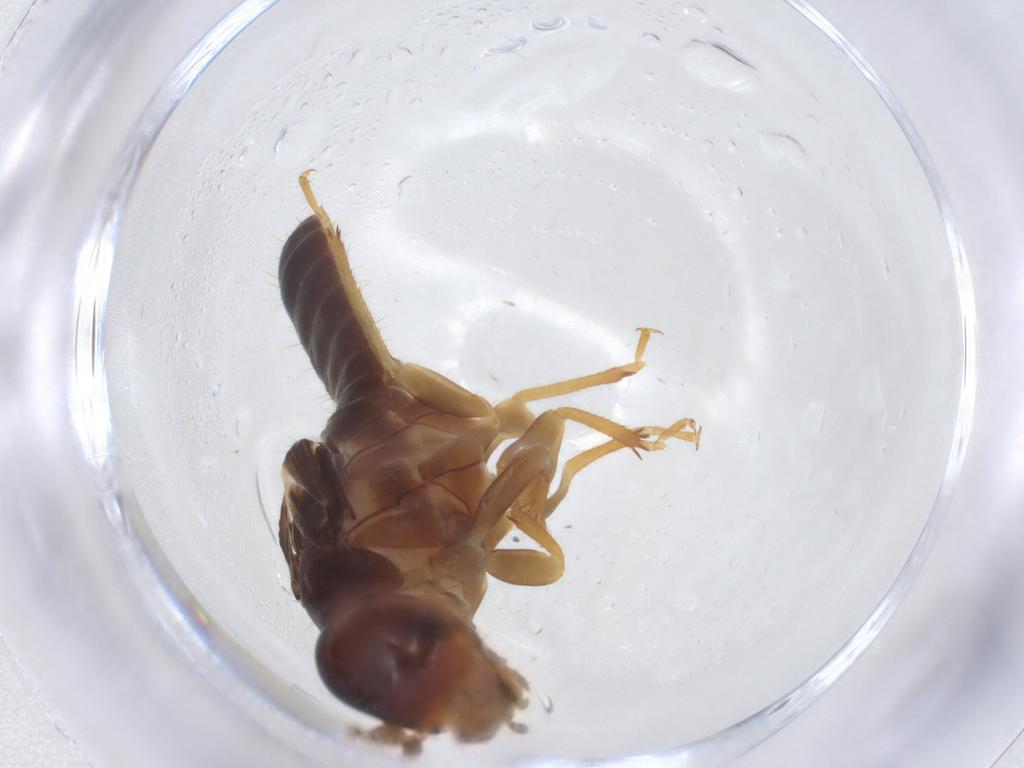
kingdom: Animalia
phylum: Arthropoda
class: Insecta
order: Blattodea
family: Kalotermitidae
